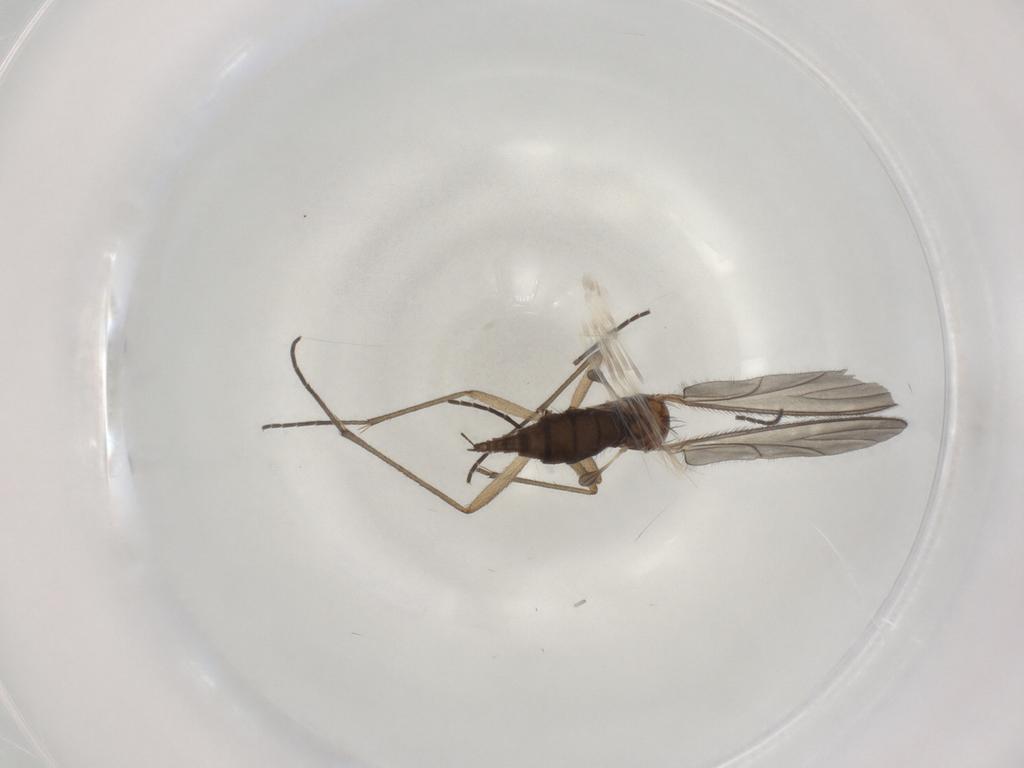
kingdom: Animalia
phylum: Arthropoda
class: Insecta
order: Diptera
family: Sciaridae
